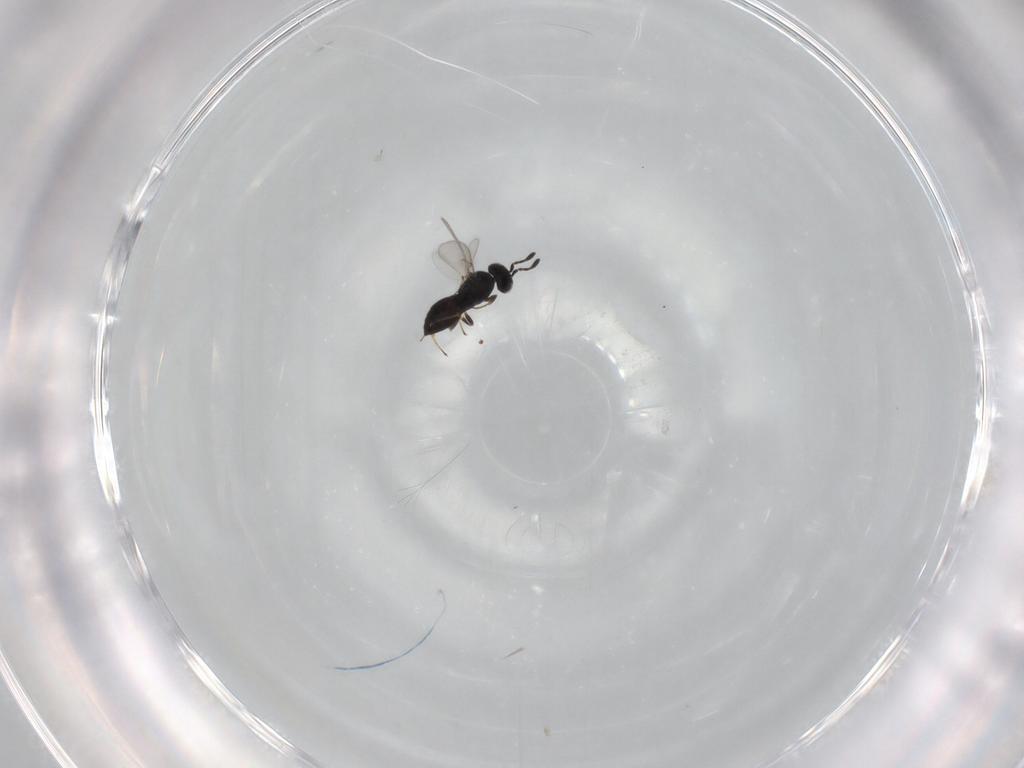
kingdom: Animalia
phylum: Arthropoda
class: Insecta
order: Hymenoptera
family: Scelionidae
